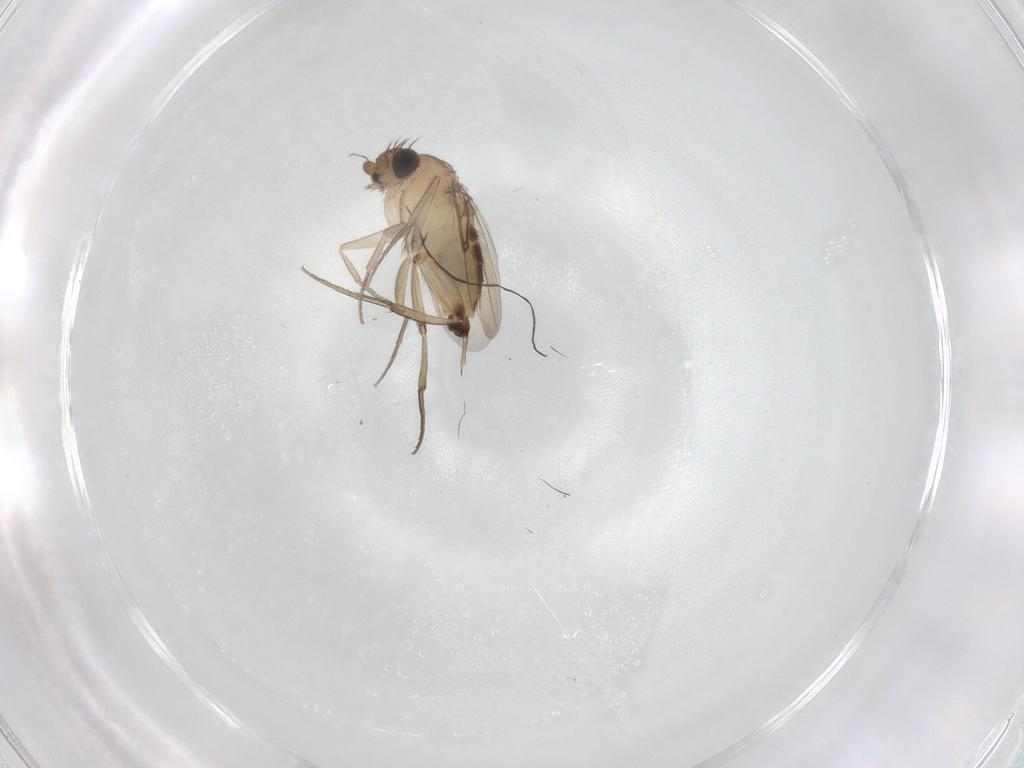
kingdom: Animalia
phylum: Arthropoda
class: Insecta
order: Diptera
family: Phoridae
